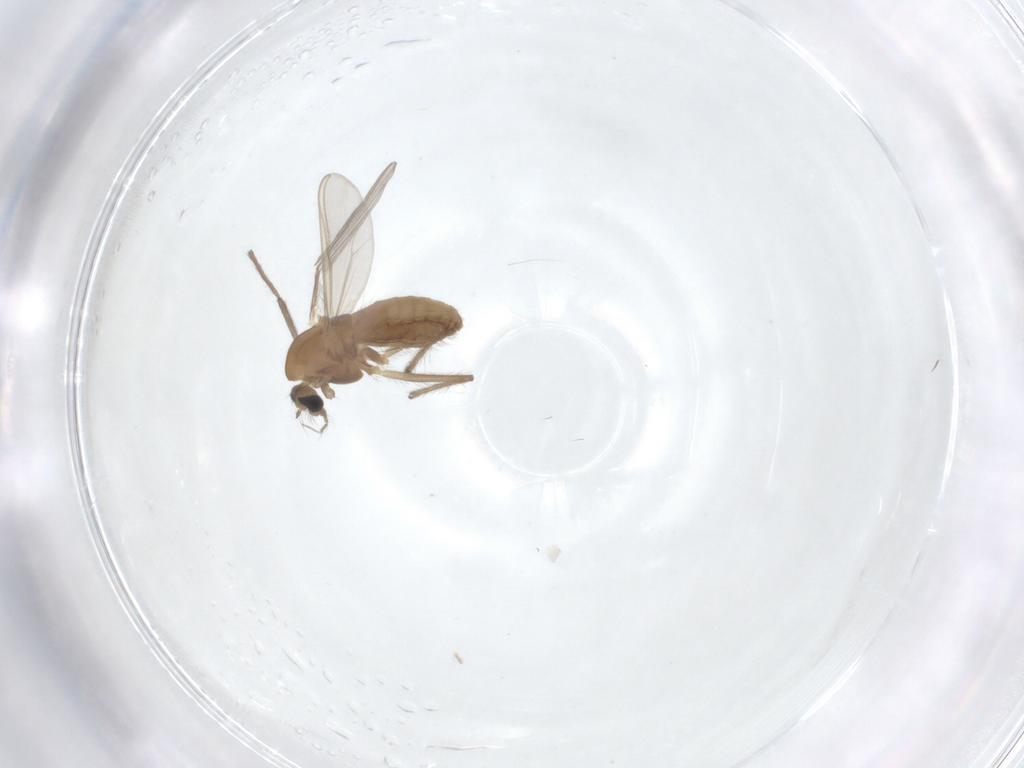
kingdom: Animalia
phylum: Arthropoda
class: Insecta
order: Diptera
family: Chironomidae
